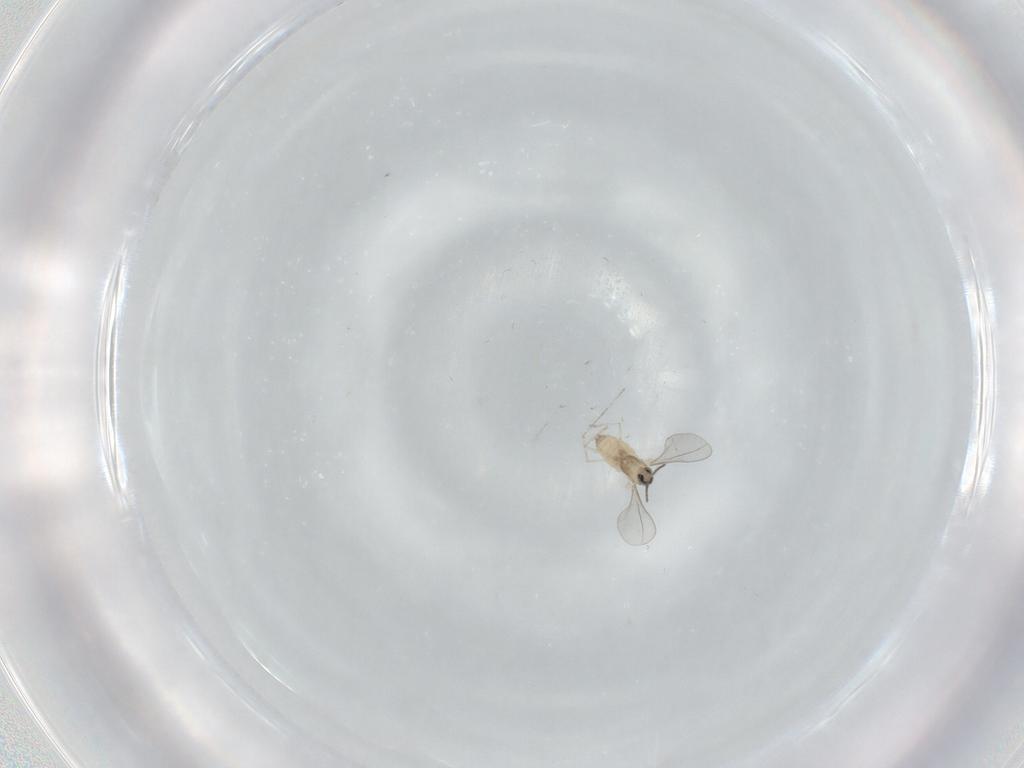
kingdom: Animalia
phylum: Arthropoda
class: Insecta
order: Diptera
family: Cecidomyiidae
